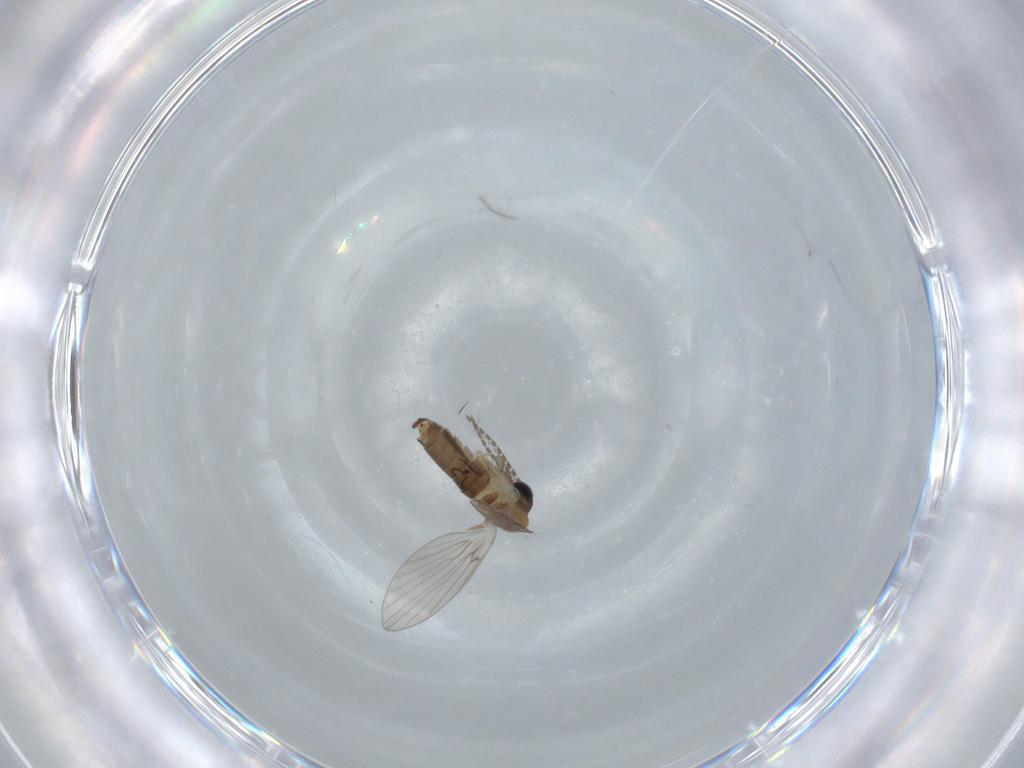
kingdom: Animalia
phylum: Arthropoda
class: Insecta
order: Diptera
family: Psychodidae
